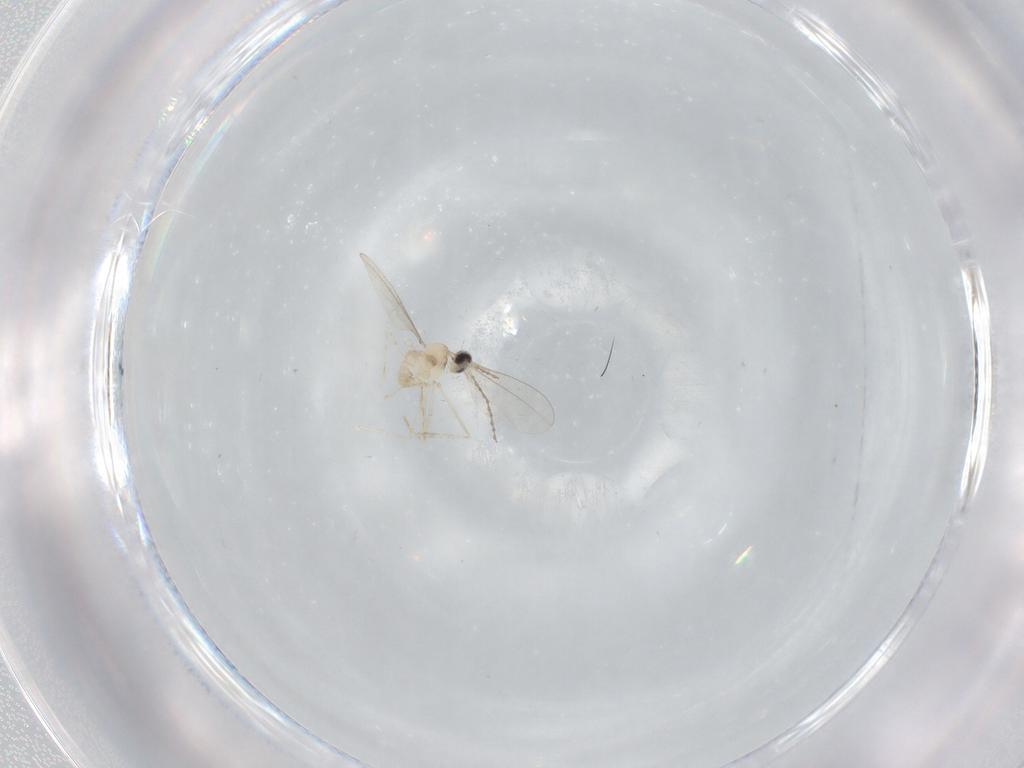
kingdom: Animalia
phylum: Arthropoda
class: Insecta
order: Diptera
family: Cecidomyiidae
